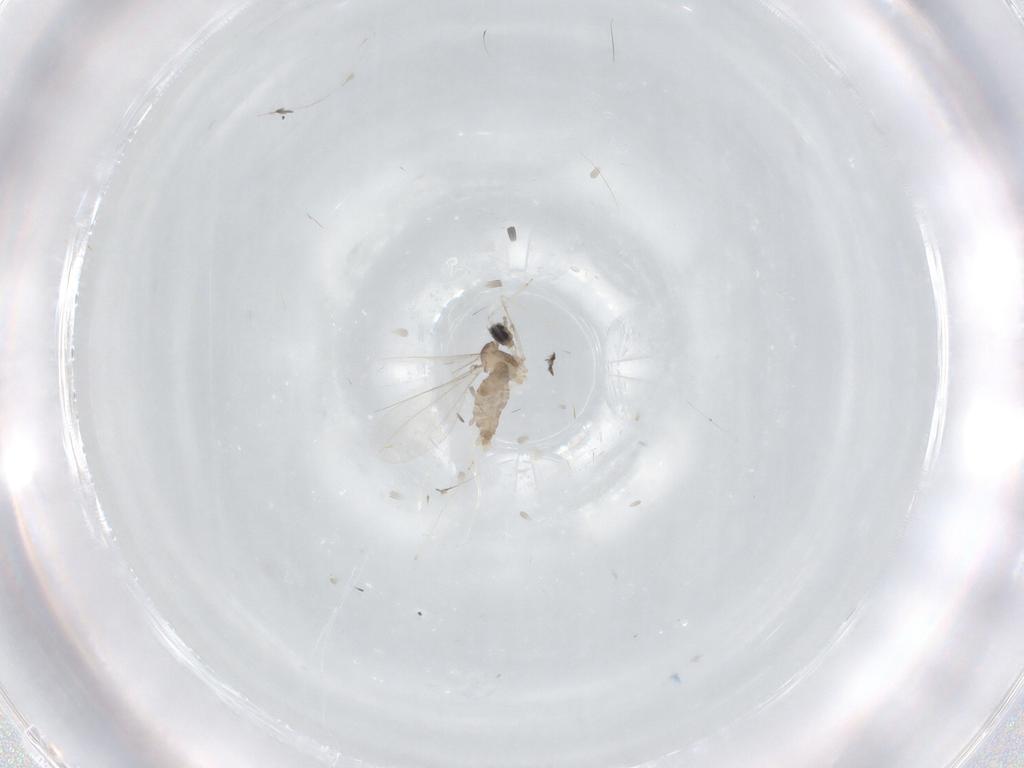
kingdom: Animalia
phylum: Arthropoda
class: Insecta
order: Diptera
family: Cecidomyiidae
